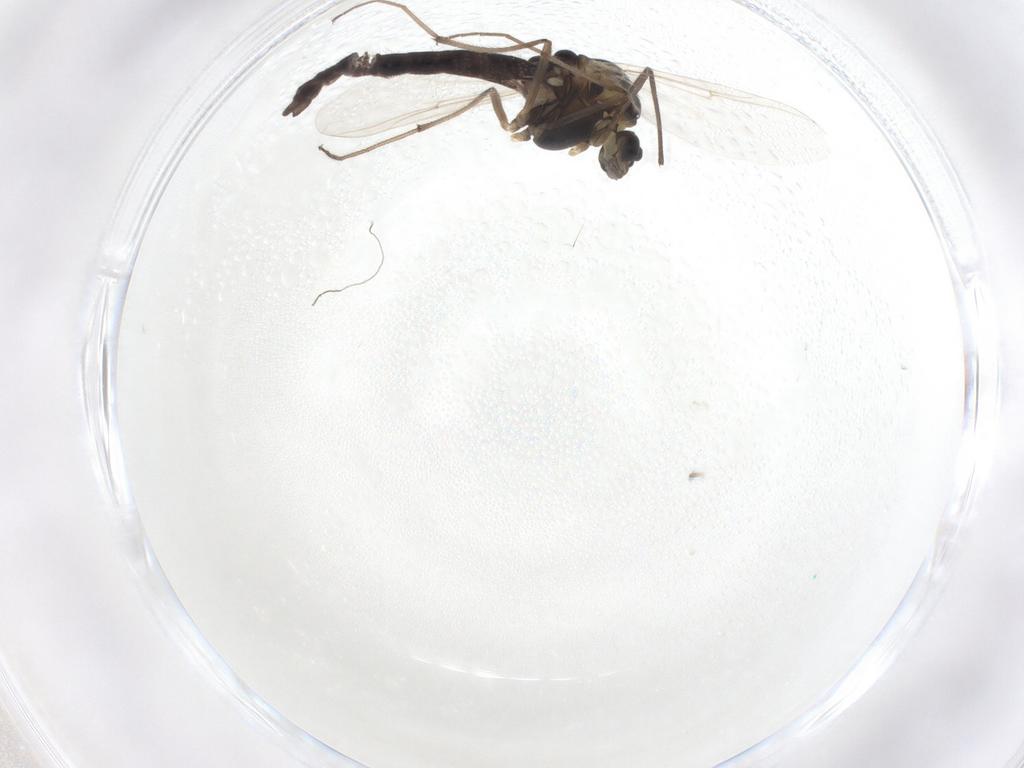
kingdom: Animalia
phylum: Arthropoda
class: Insecta
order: Diptera
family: Chironomidae
